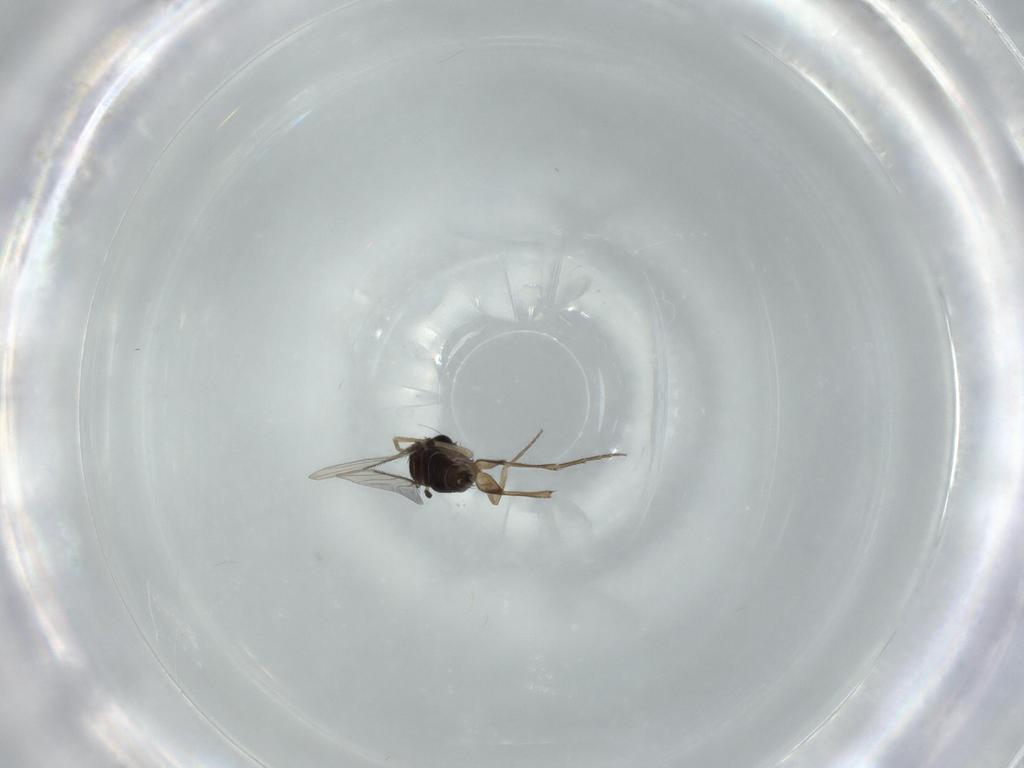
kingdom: Animalia
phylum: Arthropoda
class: Insecta
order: Diptera
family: Phoridae
